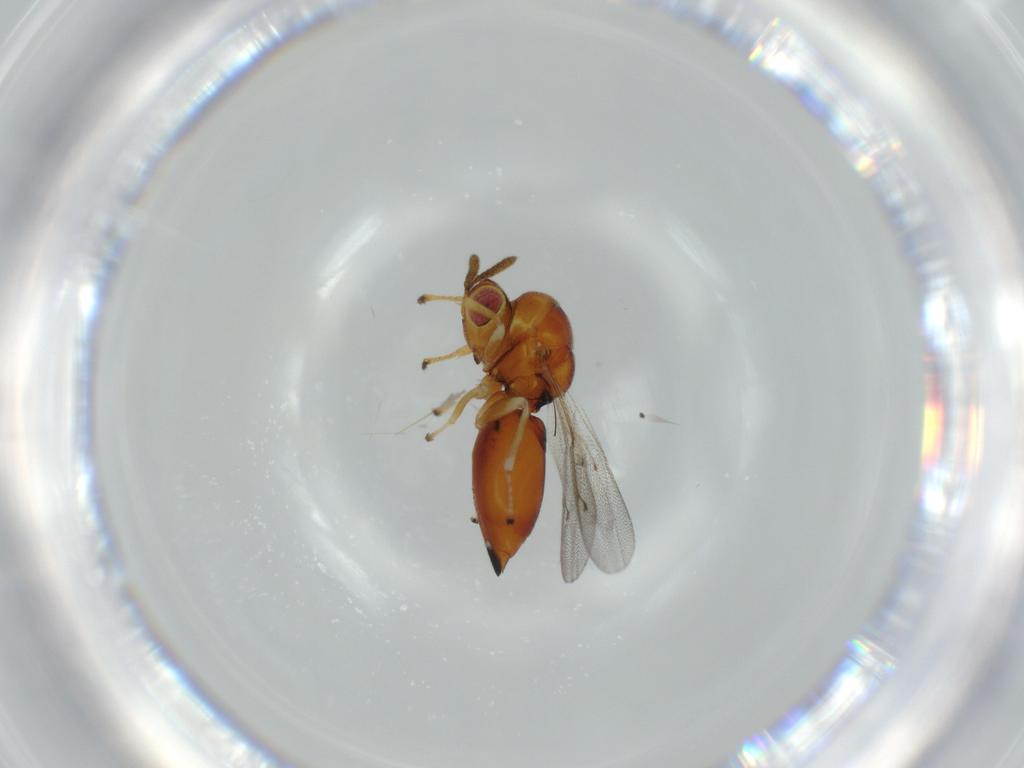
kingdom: Animalia
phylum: Arthropoda
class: Insecta
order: Hymenoptera
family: Eurytomidae
